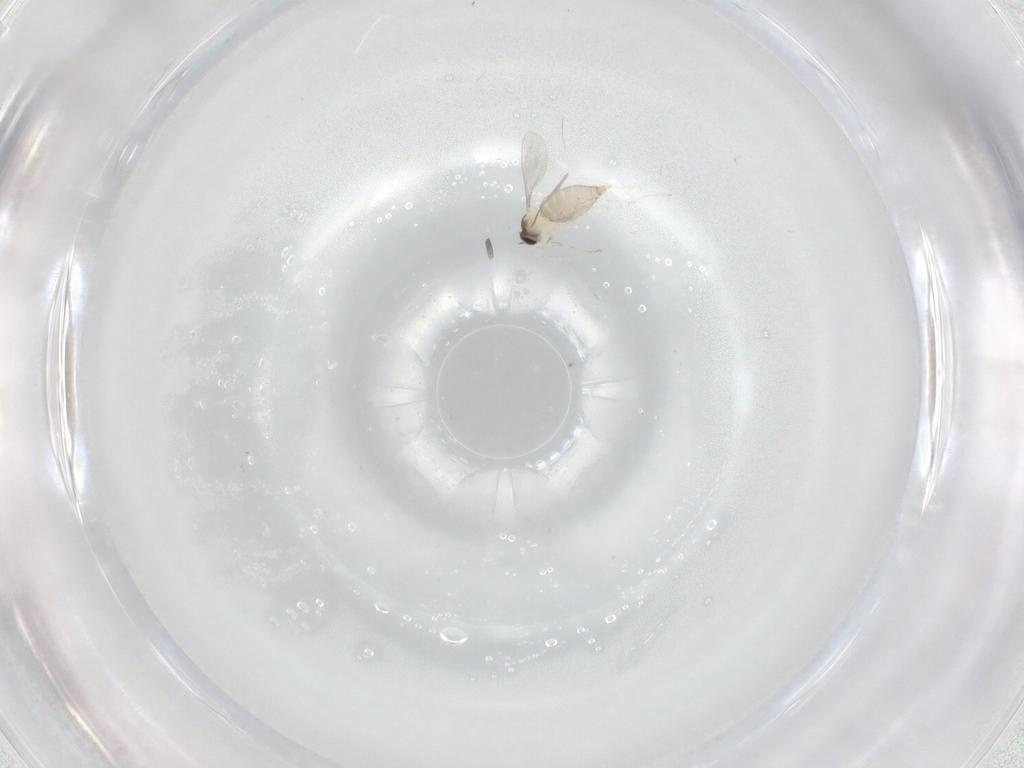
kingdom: Animalia
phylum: Arthropoda
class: Insecta
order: Diptera
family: Cecidomyiidae
